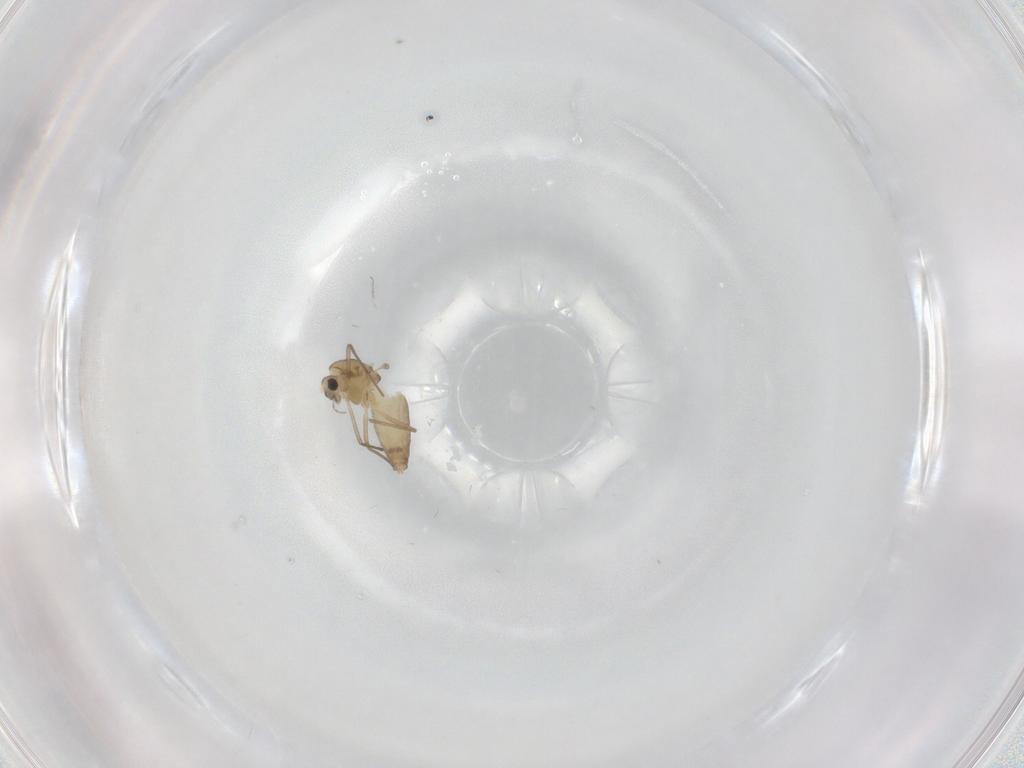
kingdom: Animalia
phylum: Arthropoda
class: Insecta
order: Diptera
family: Chironomidae
